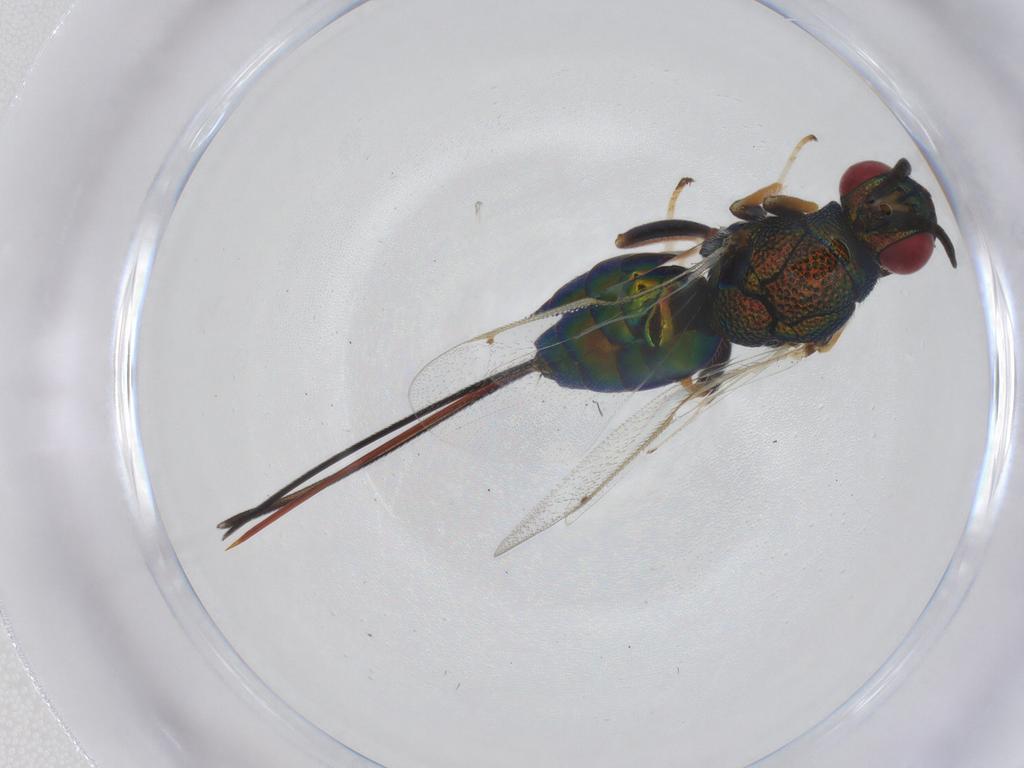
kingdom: Animalia
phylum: Arthropoda
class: Insecta
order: Hymenoptera
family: Torymidae
